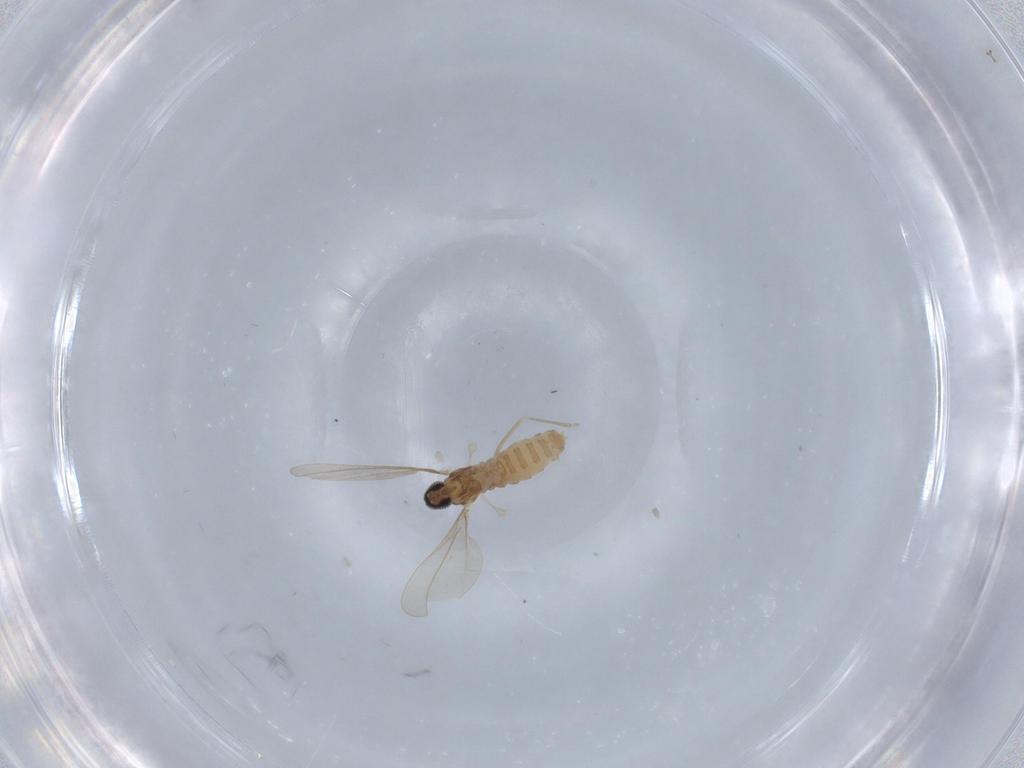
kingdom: Animalia
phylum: Arthropoda
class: Insecta
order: Diptera
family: Cecidomyiidae
